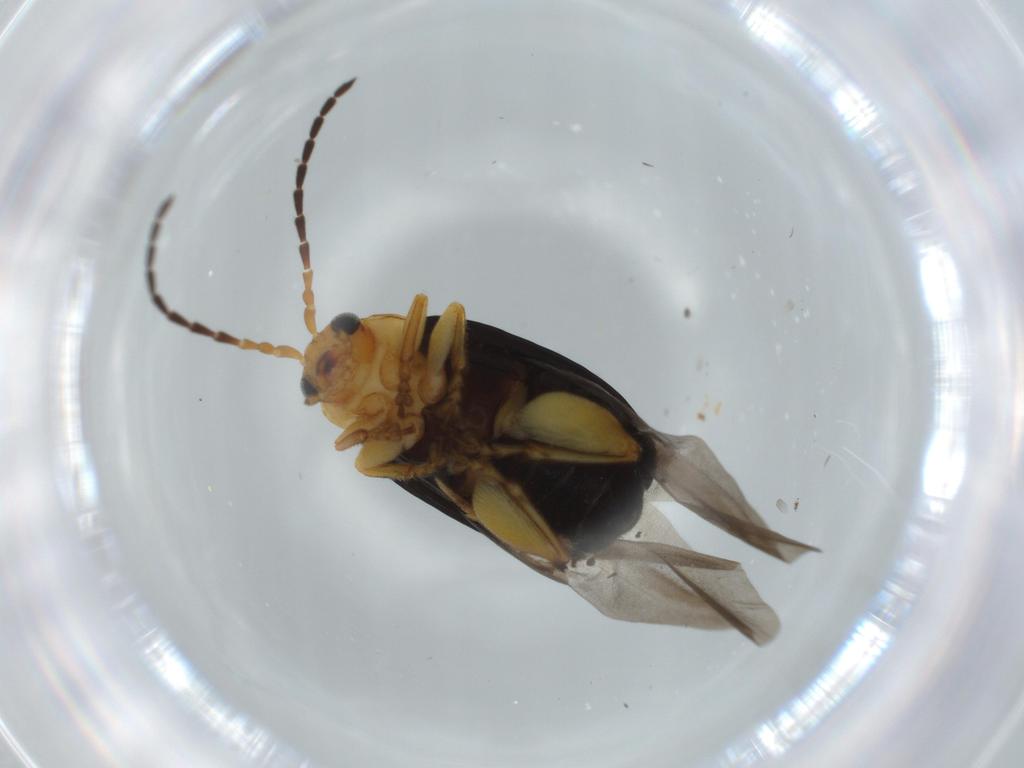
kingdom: Animalia
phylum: Arthropoda
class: Insecta
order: Coleoptera
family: Chrysomelidae
